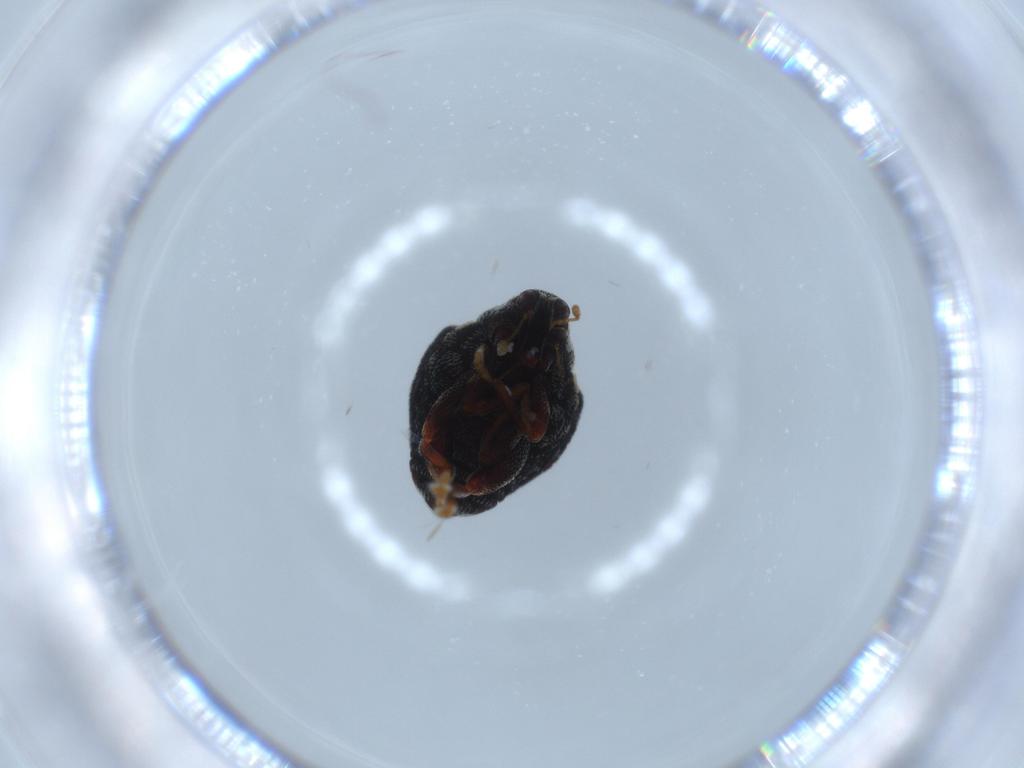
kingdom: Animalia
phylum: Arthropoda
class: Insecta
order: Coleoptera
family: Curculionidae
